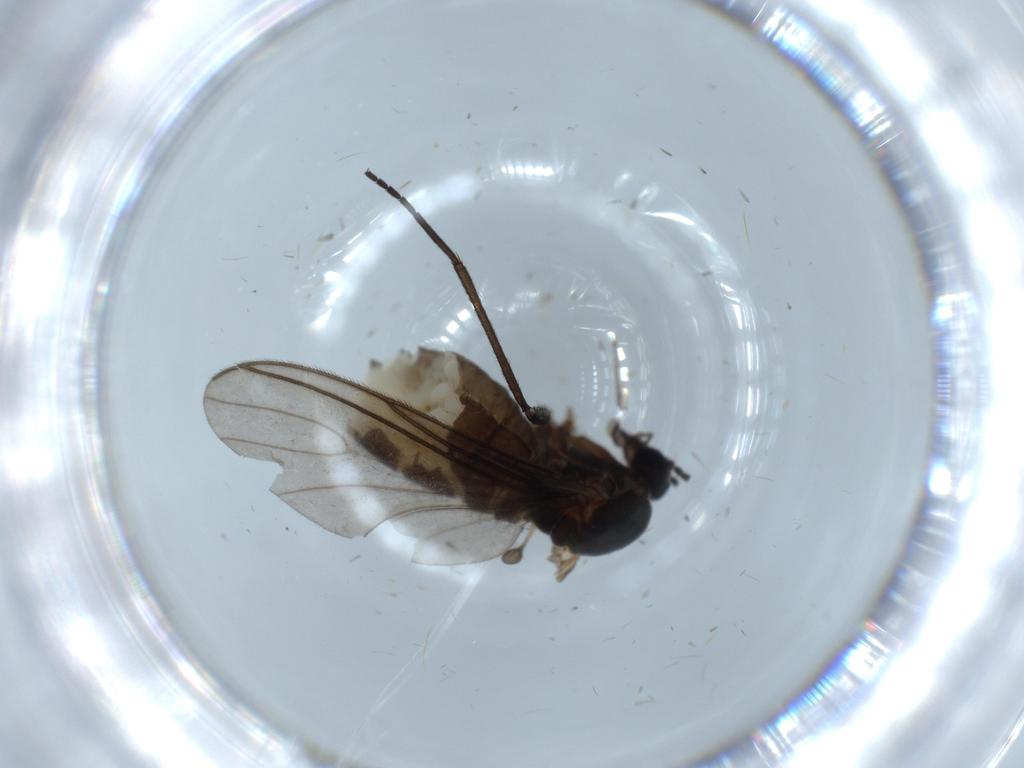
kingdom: Animalia
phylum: Arthropoda
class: Insecta
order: Diptera
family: Sciaridae
